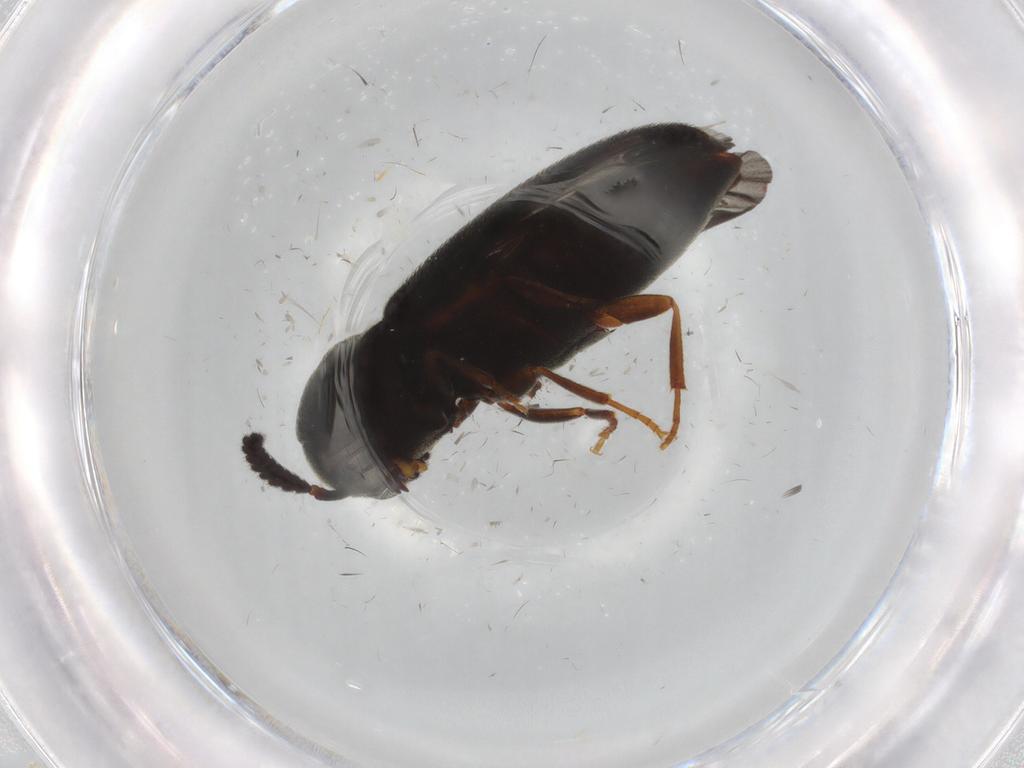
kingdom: Animalia
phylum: Arthropoda
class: Insecta
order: Coleoptera
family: Eucnemidae
